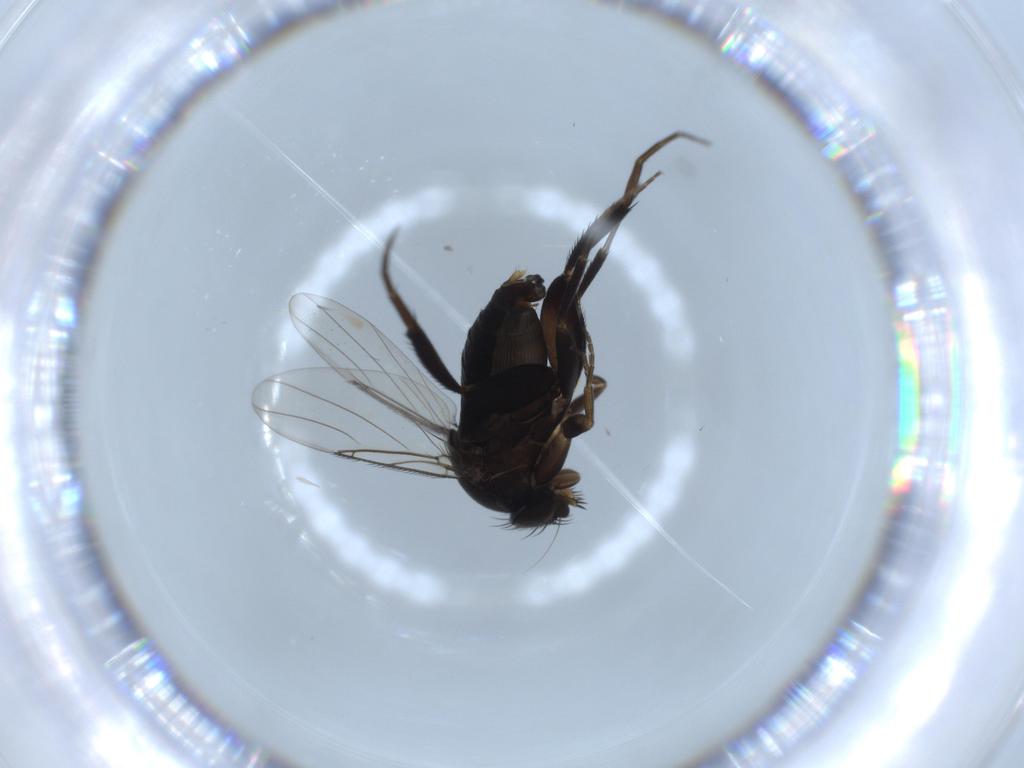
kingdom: Animalia
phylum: Arthropoda
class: Insecta
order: Diptera
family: Phoridae
